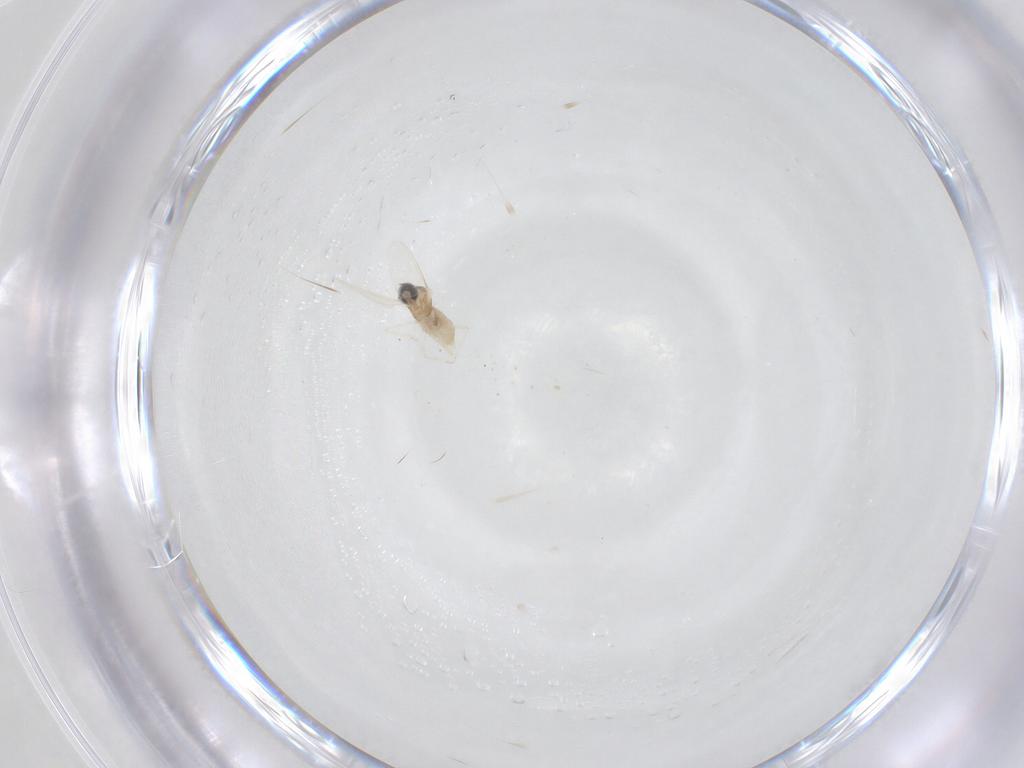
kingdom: Animalia
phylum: Arthropoda
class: Insecta
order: Diptera
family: Cecidomyiidae
